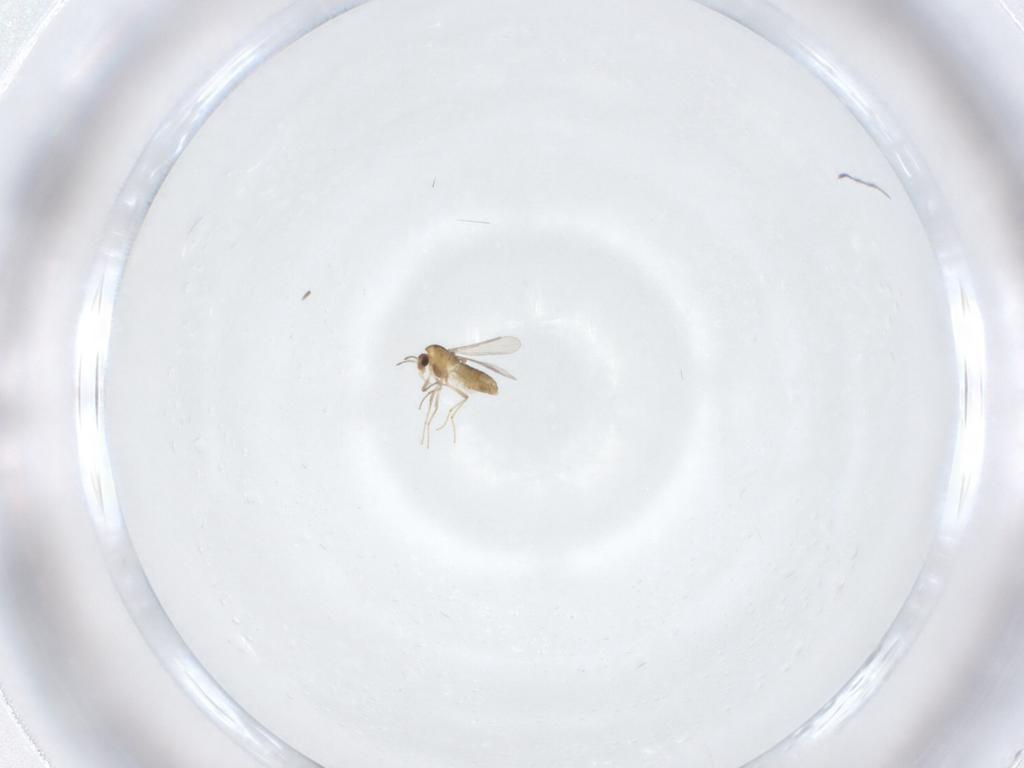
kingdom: Animalia
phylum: Arthropoda
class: Insecta
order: Diptera
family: Chironomidae
